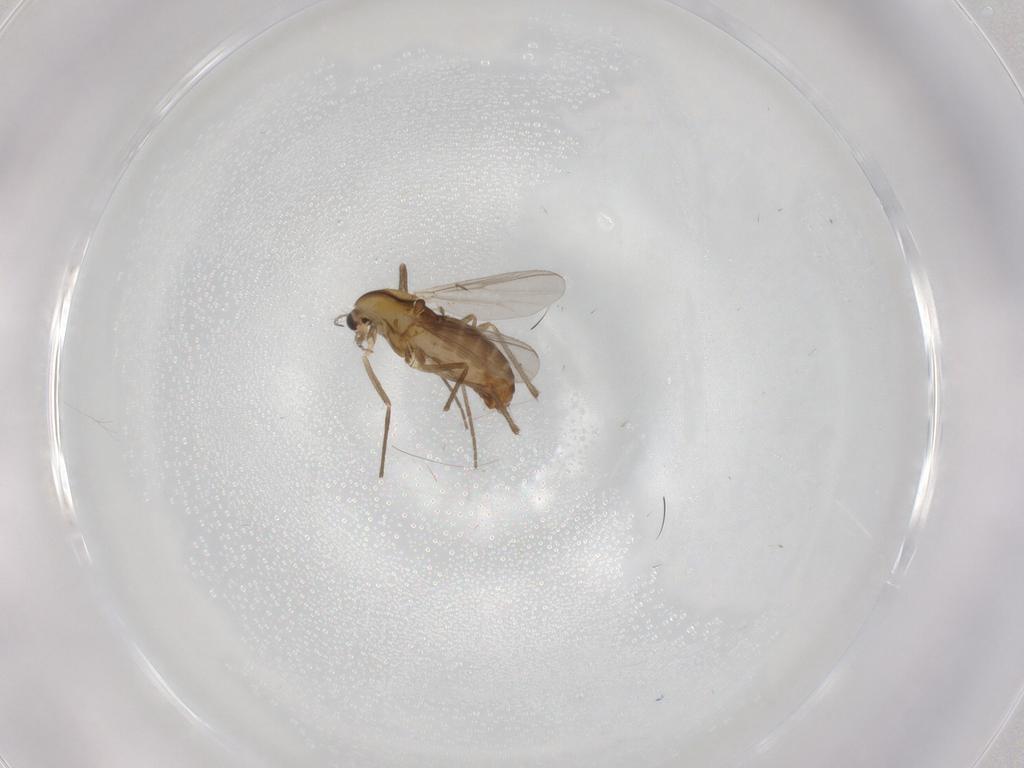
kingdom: Animalia
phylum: Arthropoda
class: Insecta
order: Diptera
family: Chironomidae
